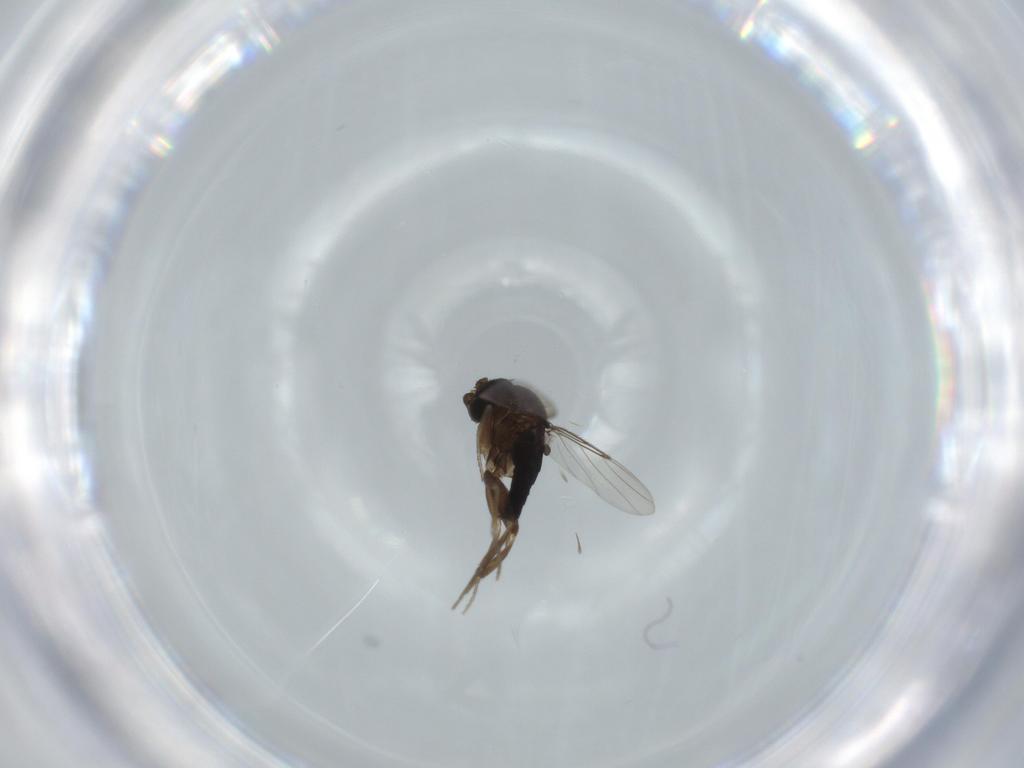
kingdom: Animalia
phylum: Arthropoda
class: Insecta
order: Diptera
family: Phoridae
